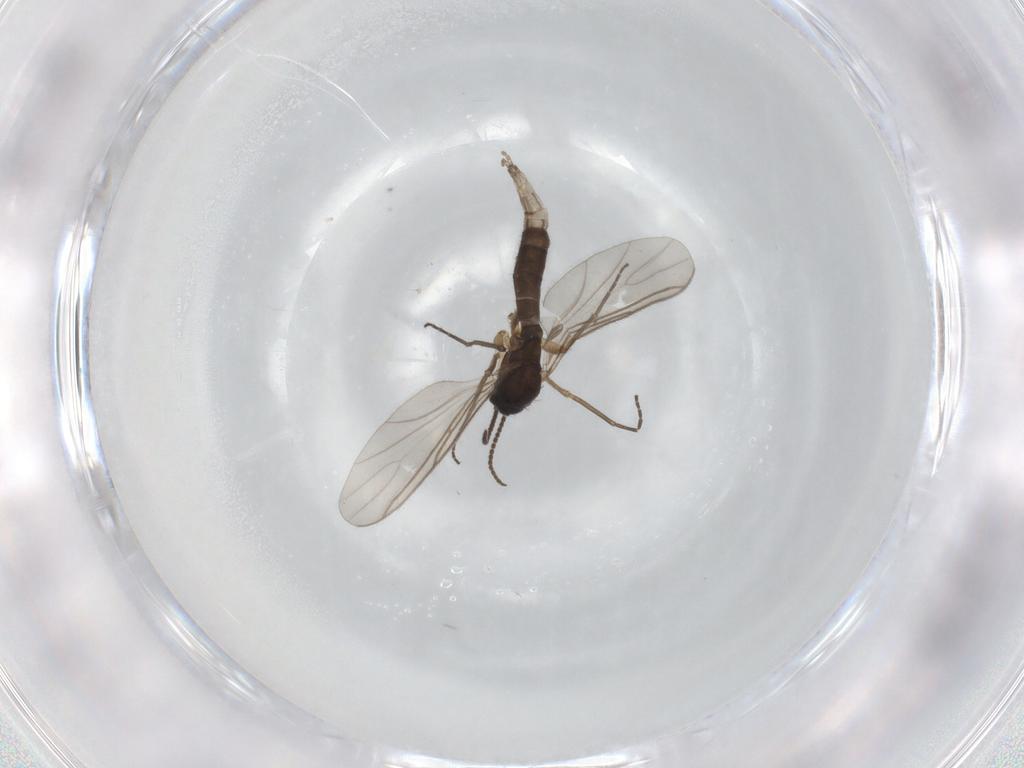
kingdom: Animalia
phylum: Arthropoda
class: Insecta
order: Diptera
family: Sciaridae
